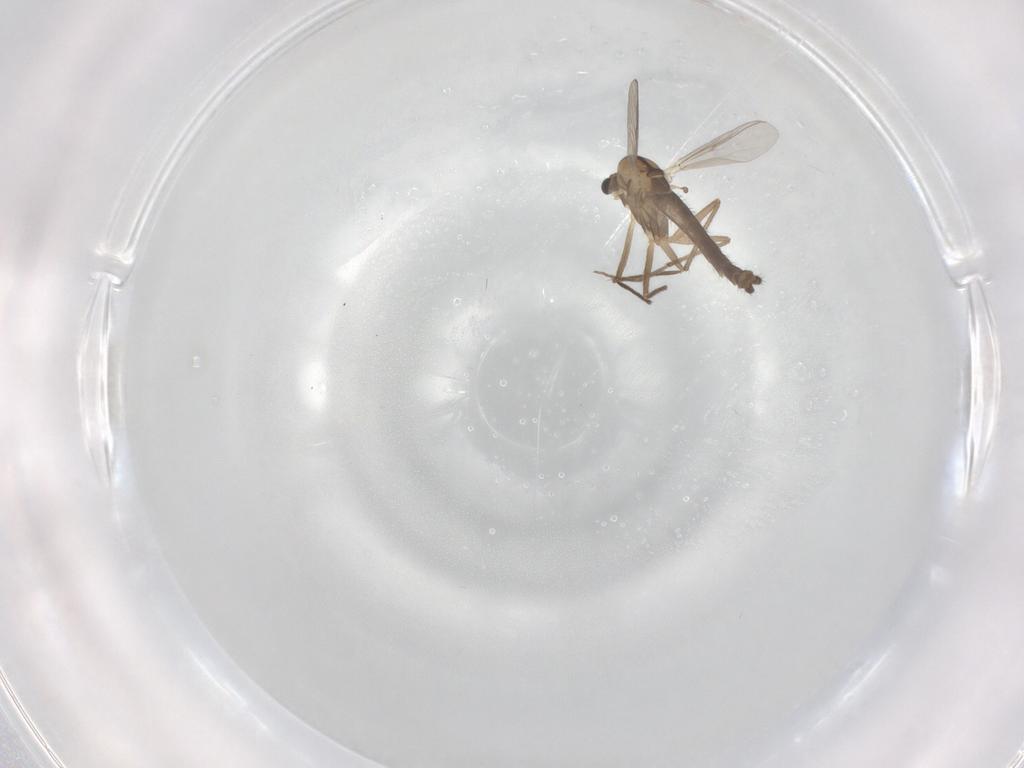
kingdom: Animalia
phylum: Arthropoda
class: Insecta
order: Diptera
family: Chironomidae
